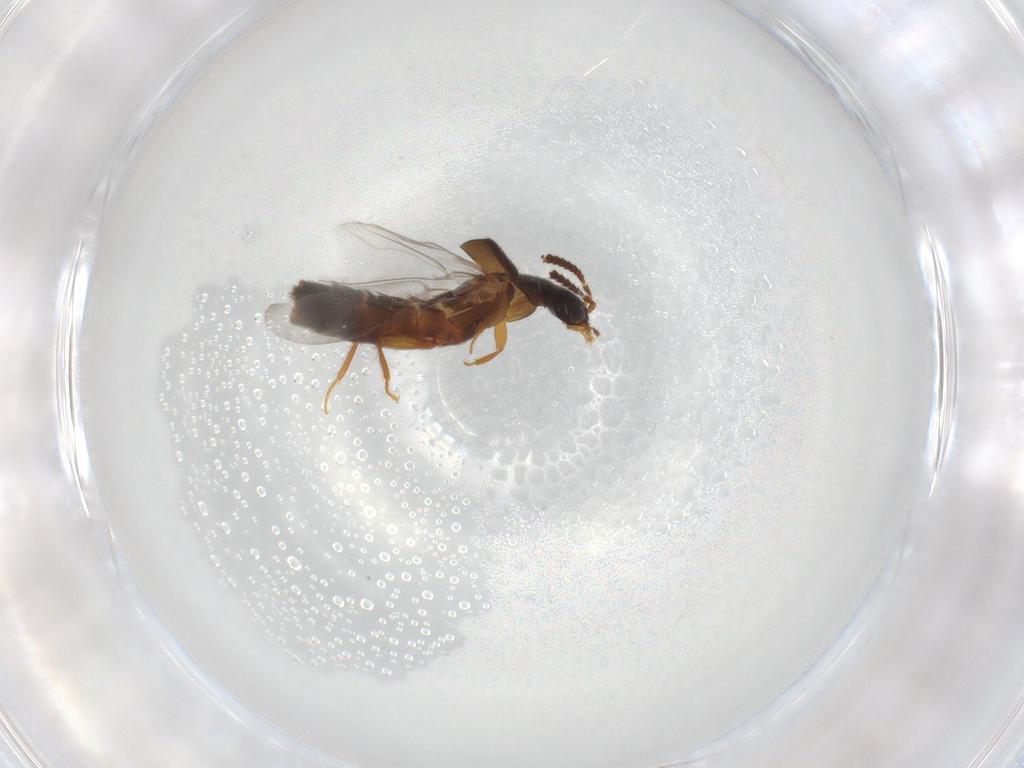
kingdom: Animalia
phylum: Arthropoda
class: Insecta
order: Coleoptera
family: Staphylinidae
